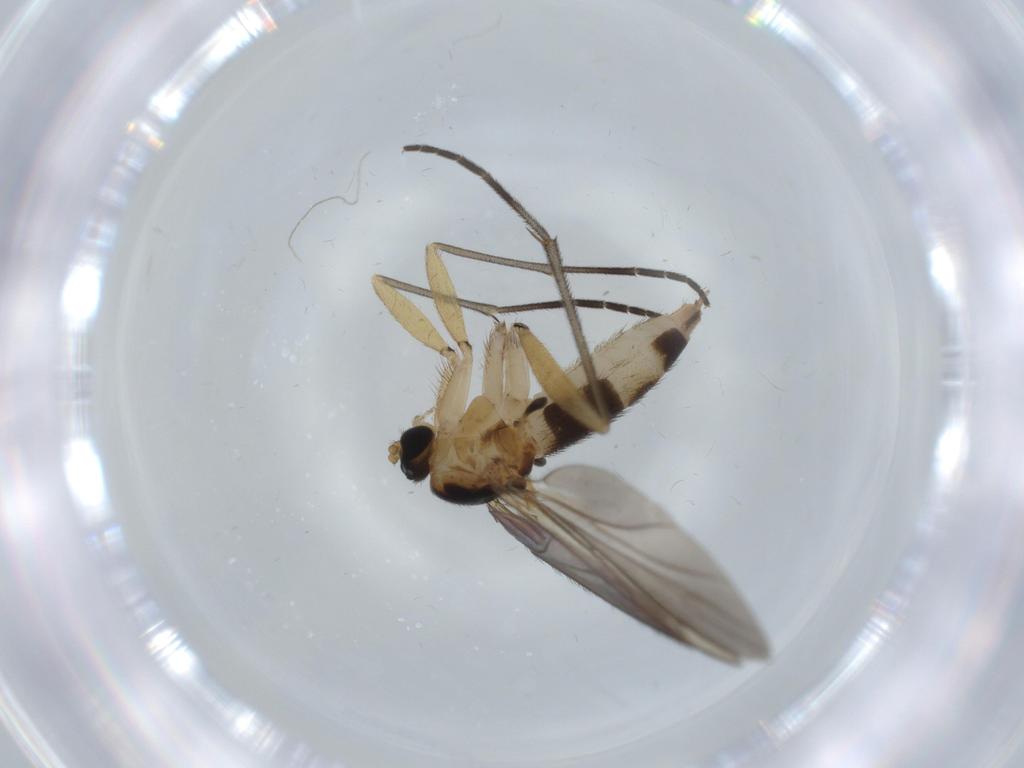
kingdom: Animalia
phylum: Arthropoda
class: Insecta
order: Diptera
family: Sciaridae
